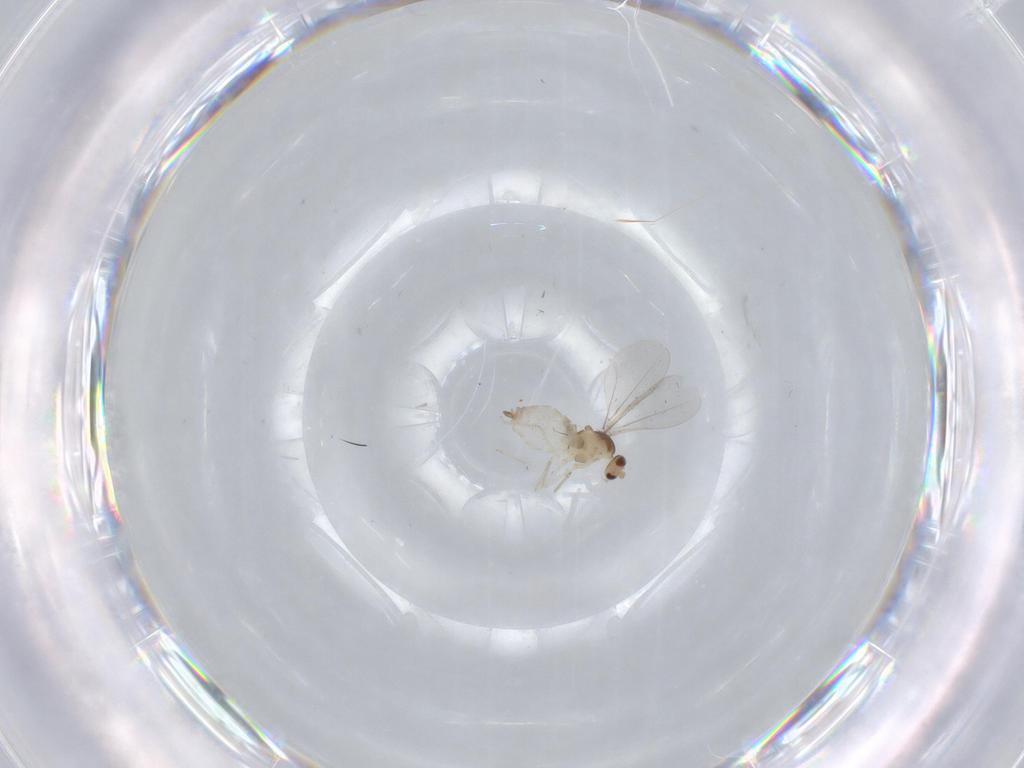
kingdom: Animalia
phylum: Arthropoda
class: Insecta
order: Diptera
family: Cecidomyiidae
